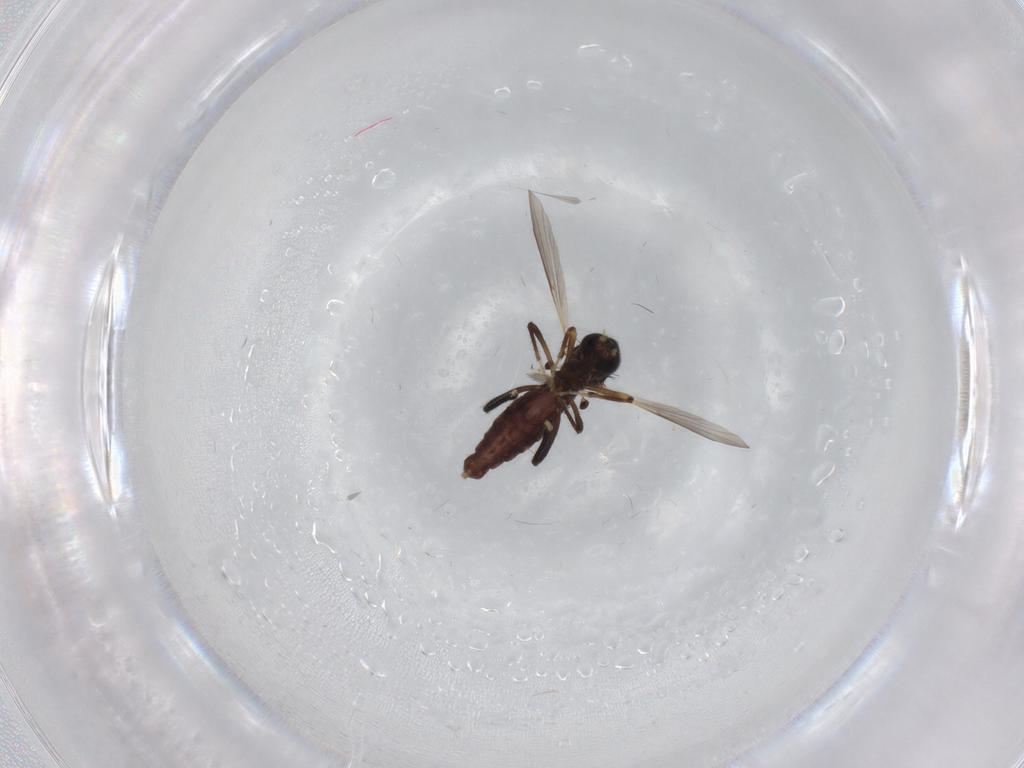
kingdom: Animalia
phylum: Arthropoda
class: Insecta
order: Diptera
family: Ceratopogonidae
